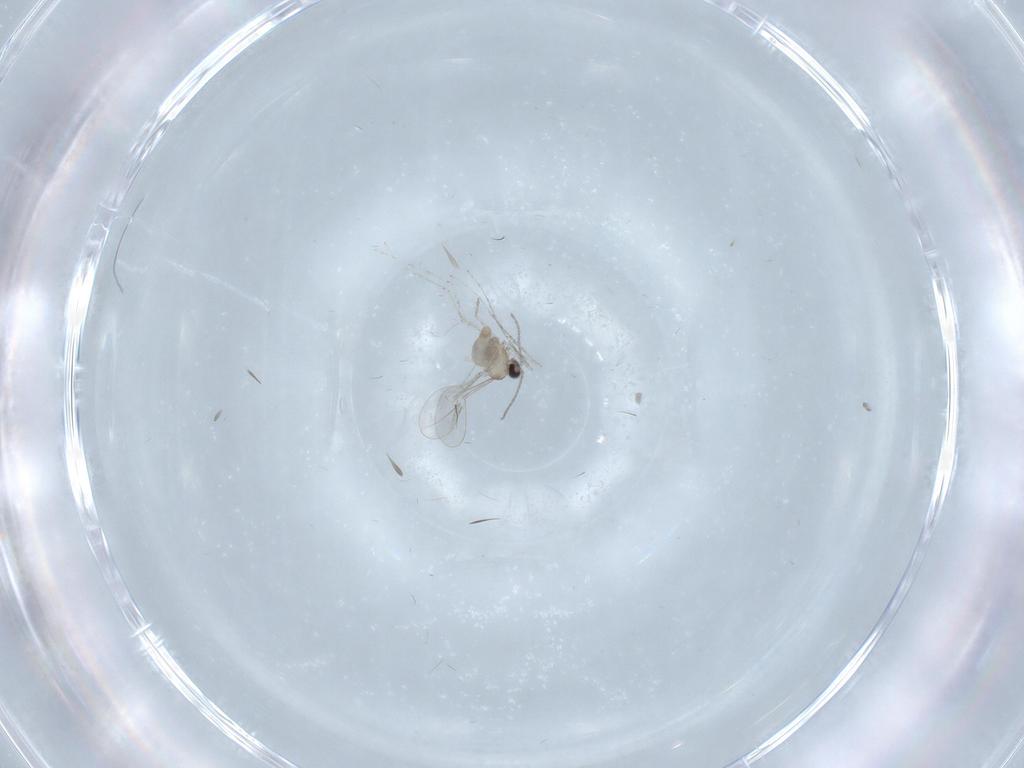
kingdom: Animalia
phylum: Arthropoda
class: Insecta
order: Diptera
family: Cecidomyiidae
